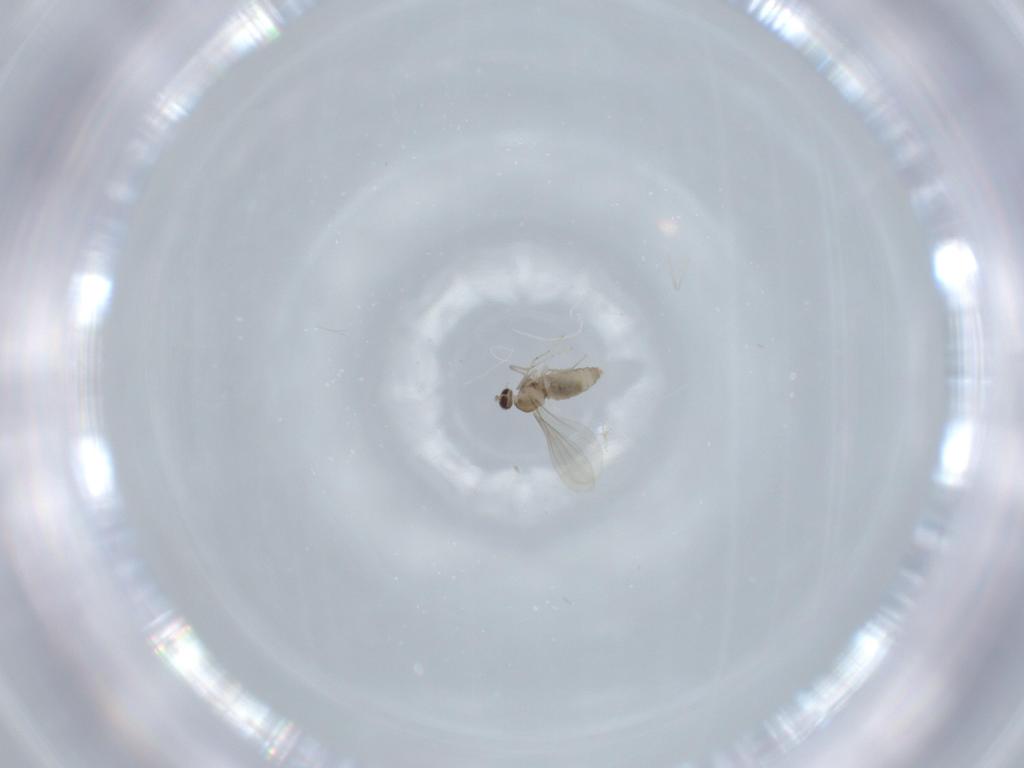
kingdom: Animalia
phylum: Arthropoda
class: Insecta
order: Diptera
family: Cecidomyiidae
